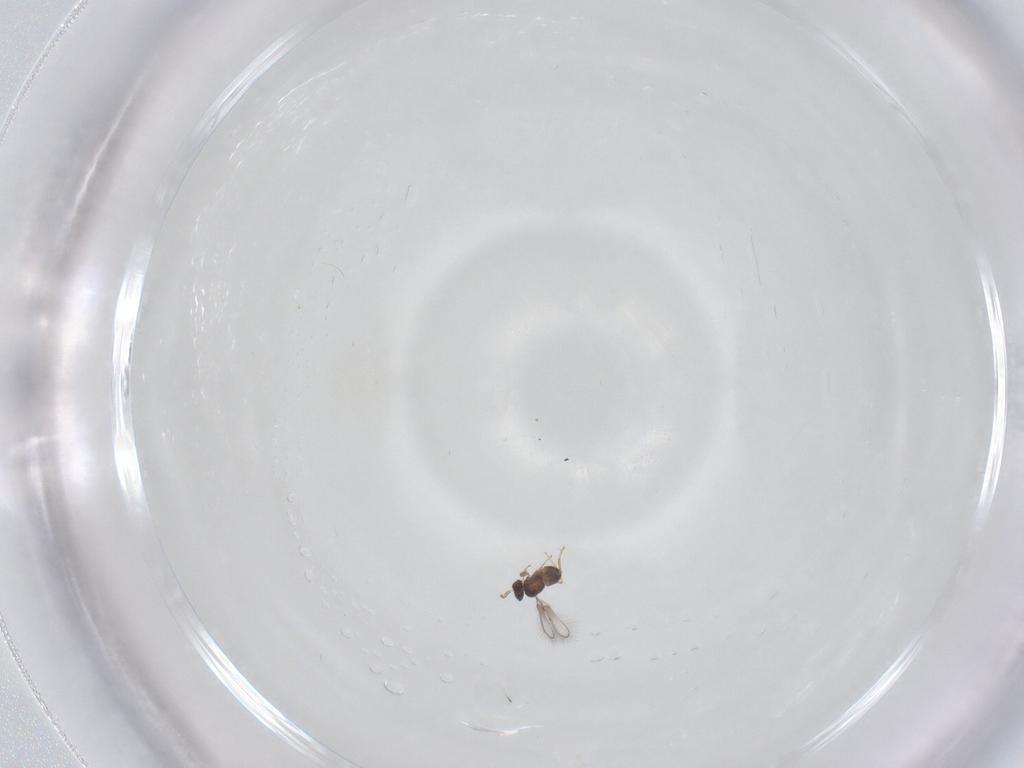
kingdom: Animalia
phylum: Arthropoda
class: Insecta
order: Hymenoptera
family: Mymaridae
